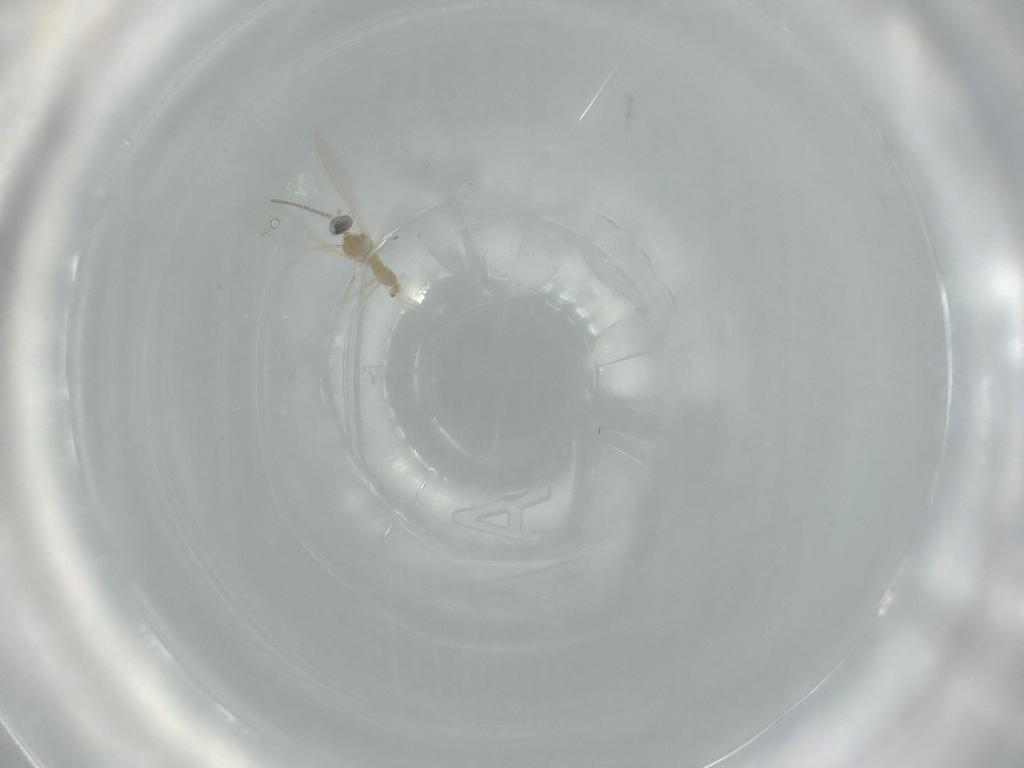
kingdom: Animalia
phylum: Arthropoda
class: Insecta
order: Diptera
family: Cecidomyiidae
